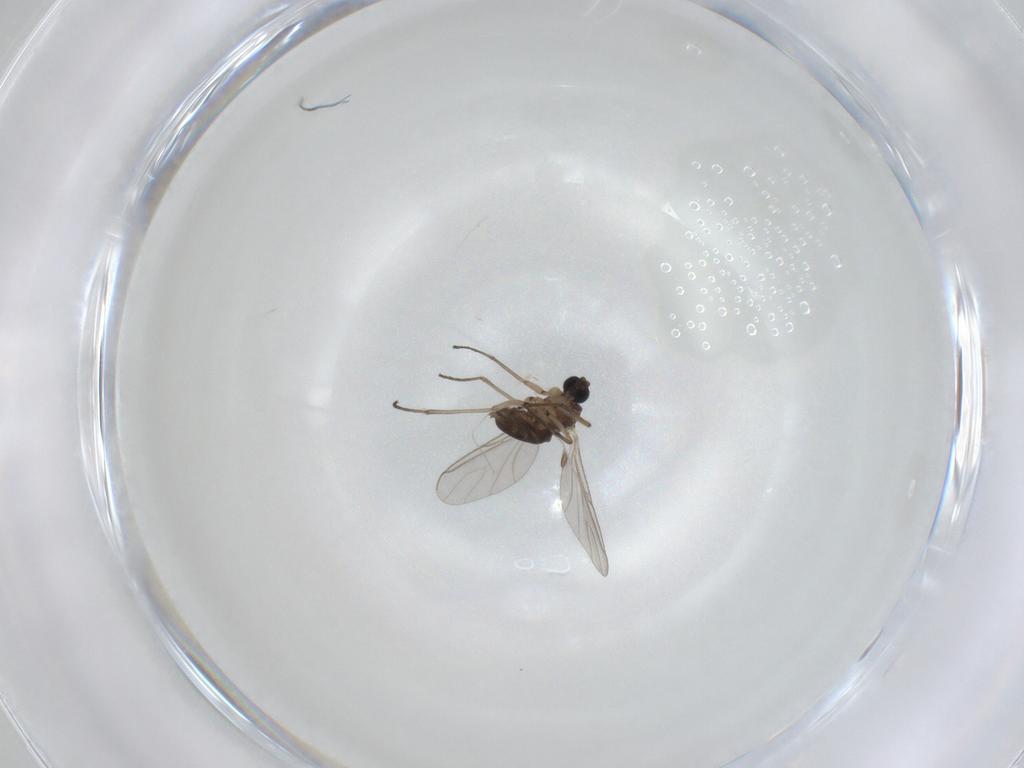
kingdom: Animalia
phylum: Arthropoda
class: Insecta
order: Diptera
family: Sciaridae
